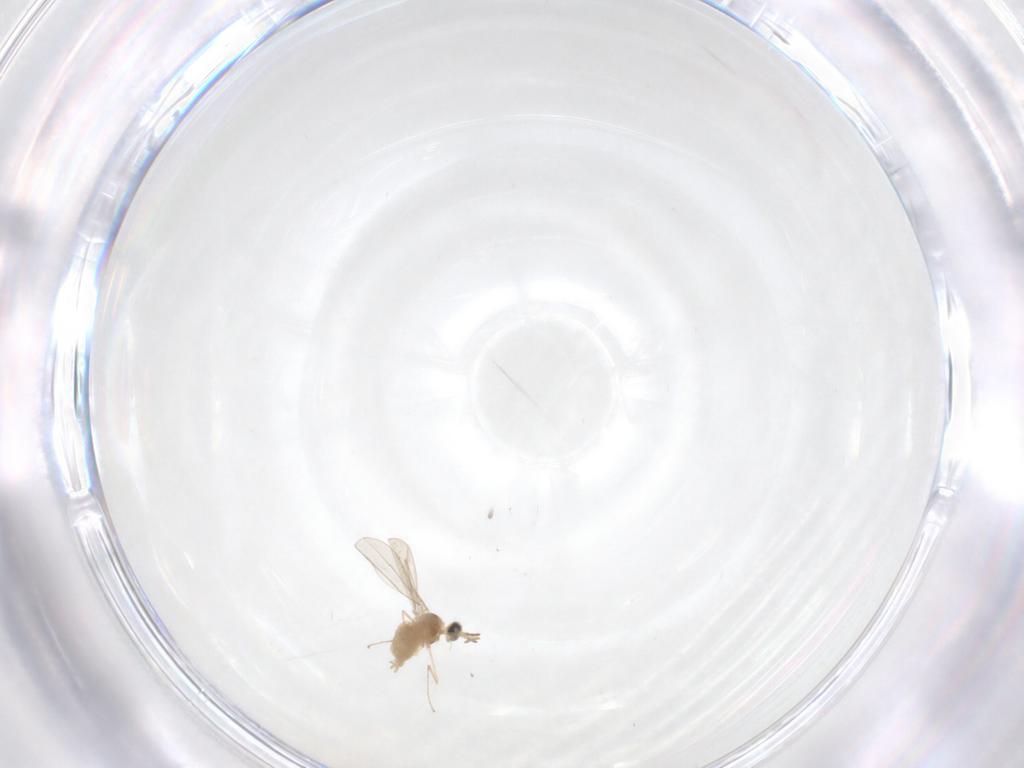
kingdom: Animalia
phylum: Arthropoda
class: Insecta
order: Diptera
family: Cecidomyiidae
